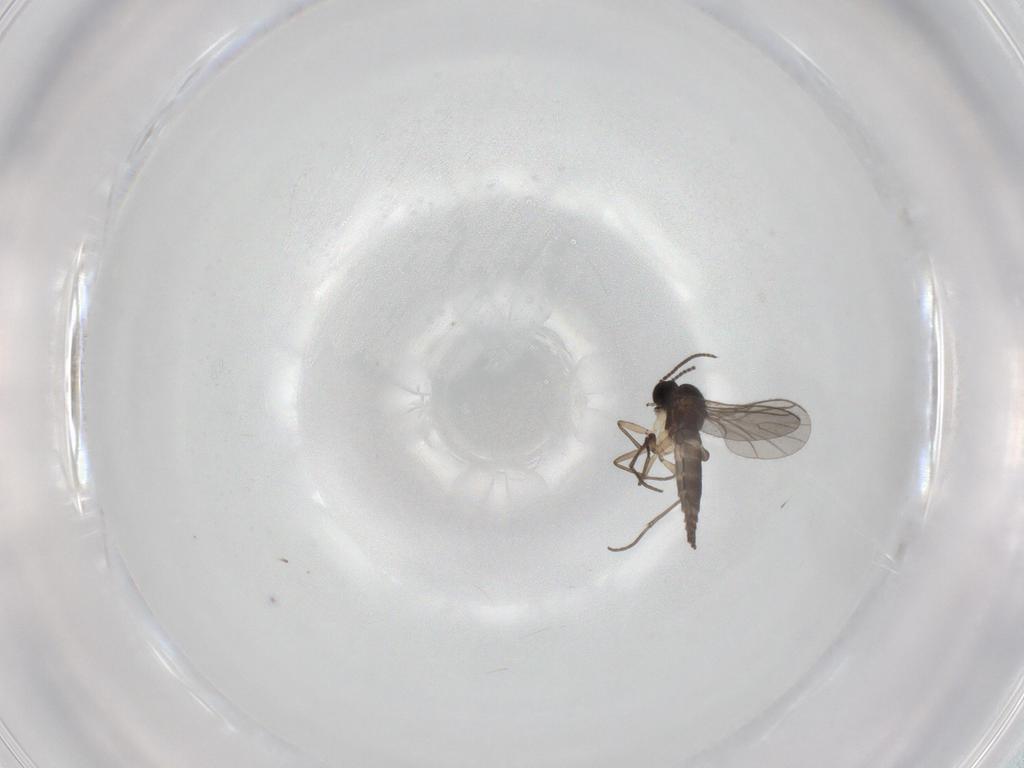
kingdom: Animalia
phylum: Arthropoda
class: Insecta
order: Diptera
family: Sciaridae
